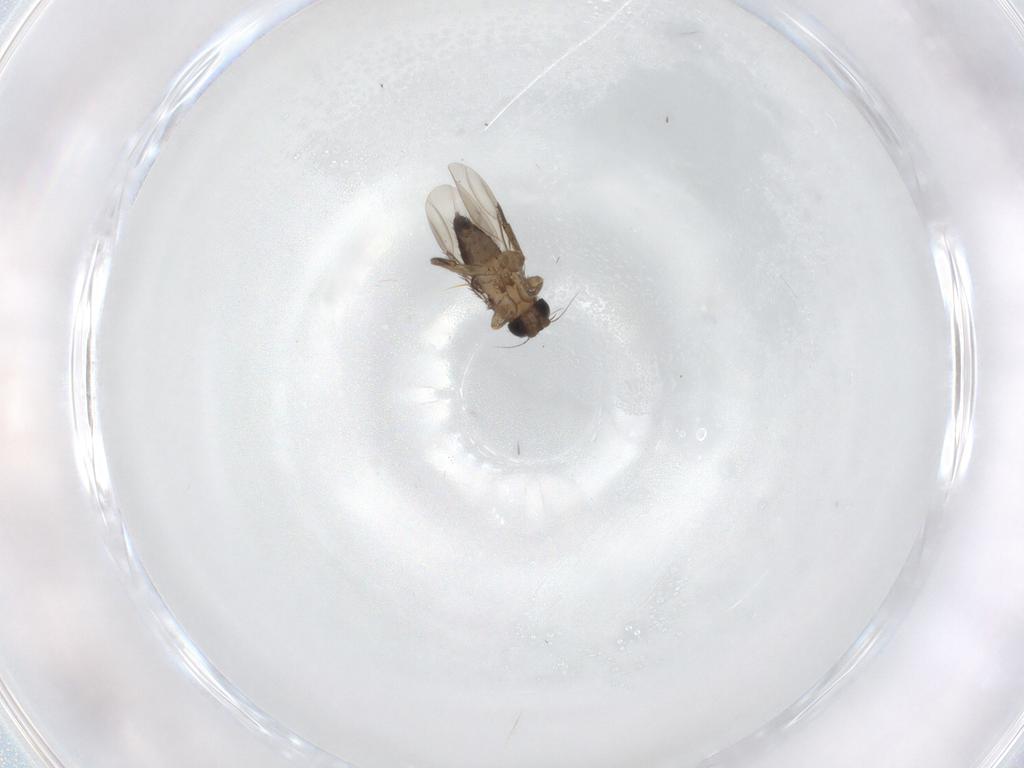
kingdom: Animalia
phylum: Arthropoda
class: Insecta
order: Diptera
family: Phoridae
